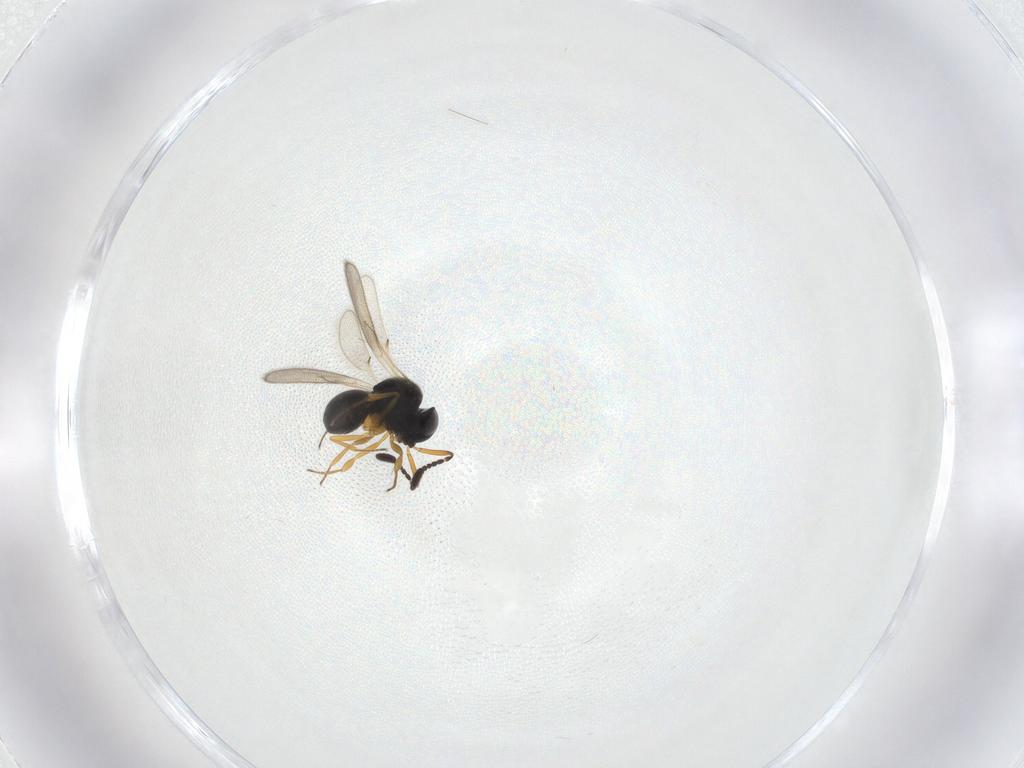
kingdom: Animalia
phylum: Arthropoda
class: Insecta
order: Hymenoptera
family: Scelionidae
